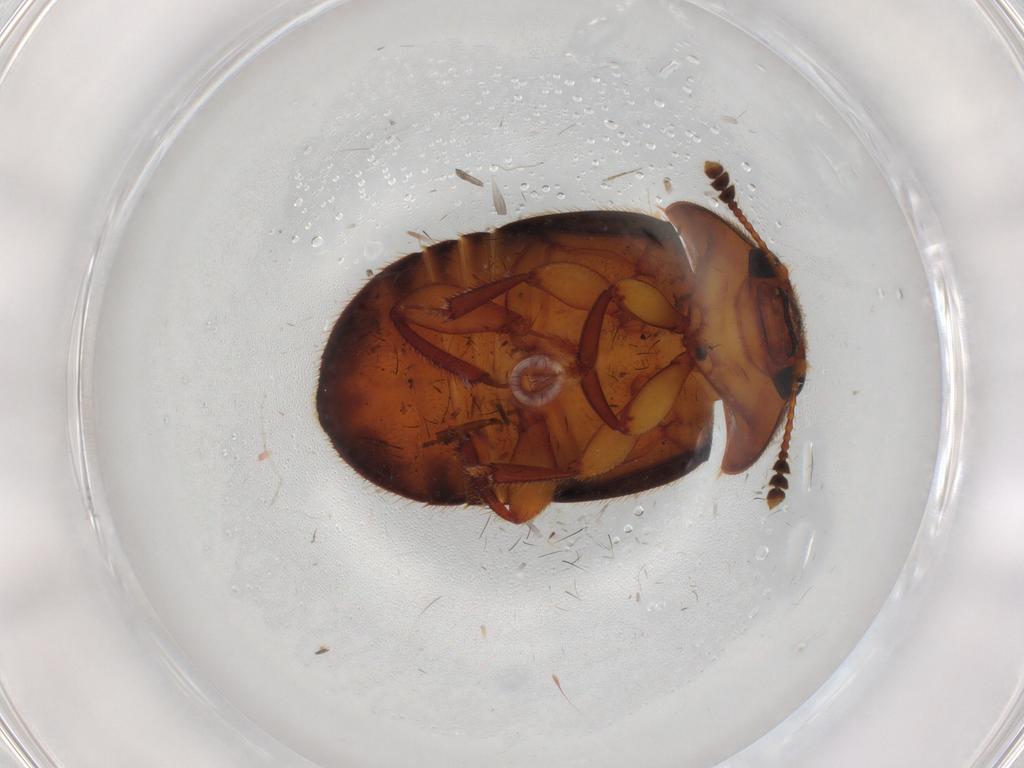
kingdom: Animalia
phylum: Arthropoda
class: Insecta
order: Coleoptera
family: Nitidulidae
